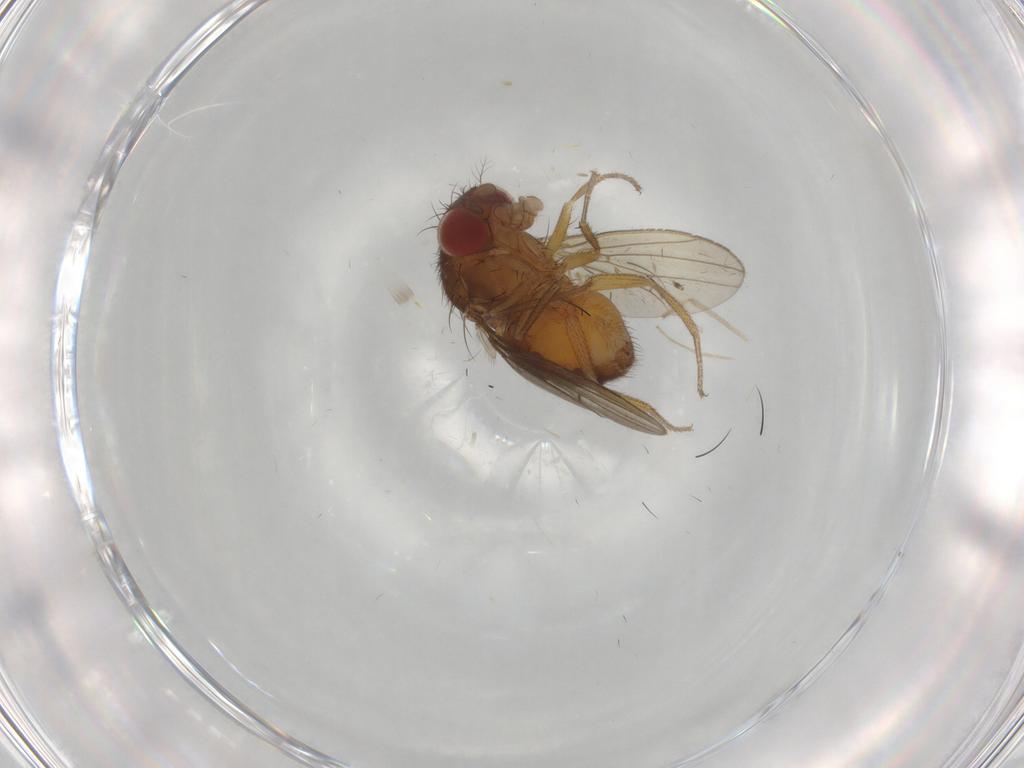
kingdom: Animalia
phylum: Arthropoda
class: Insecta
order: Diptera
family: Drosophilidae
